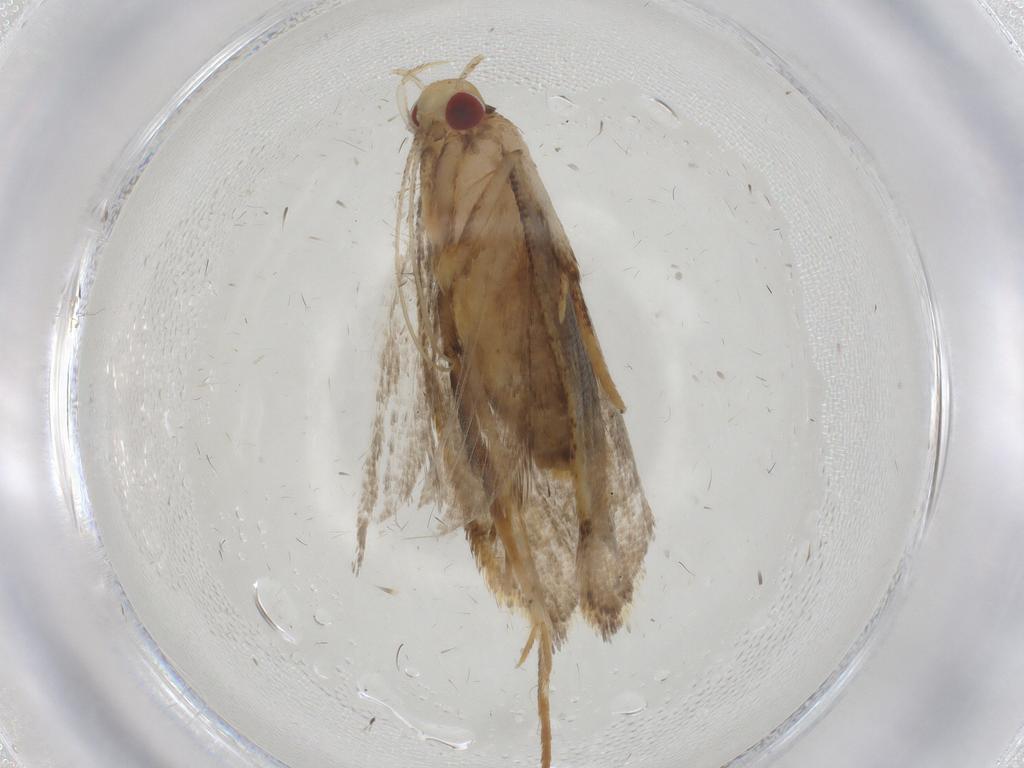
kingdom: Animalia
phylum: Arthropoda
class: Insecta
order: Lepidoptera
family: Oecophoridae
